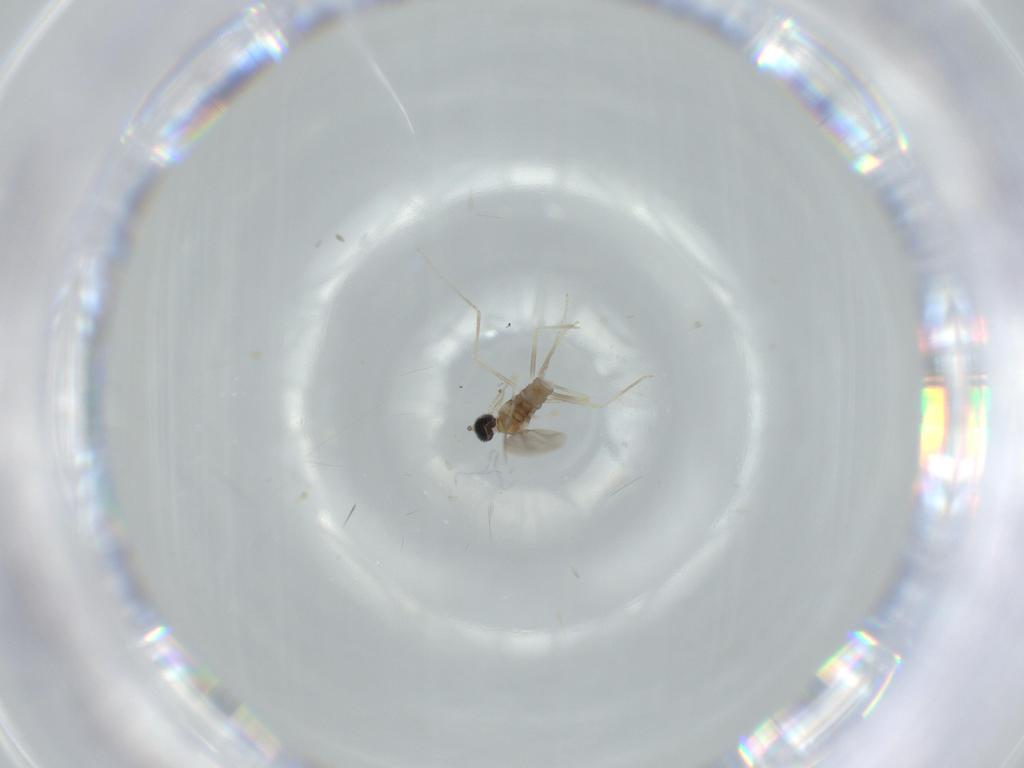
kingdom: Animalia
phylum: Arthropoda
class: Insecta
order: Diptera
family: Cecidomyiidae
